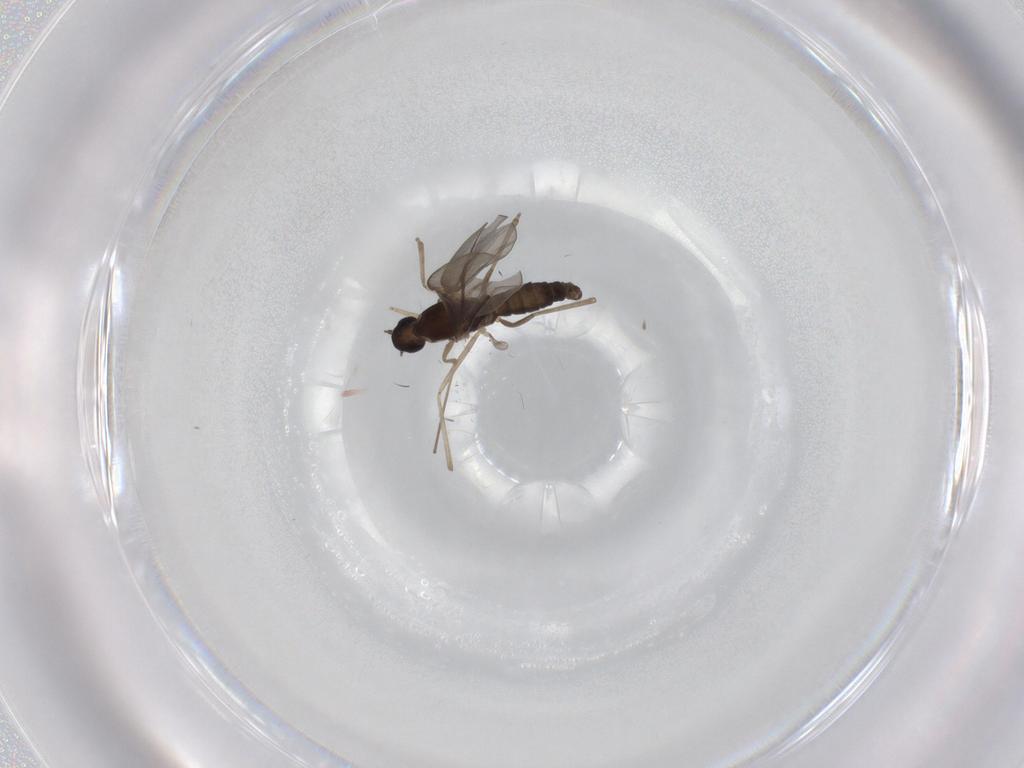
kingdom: Animalia
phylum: Arthropoda
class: Insecta
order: Diptera
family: Cecidomyiidae
